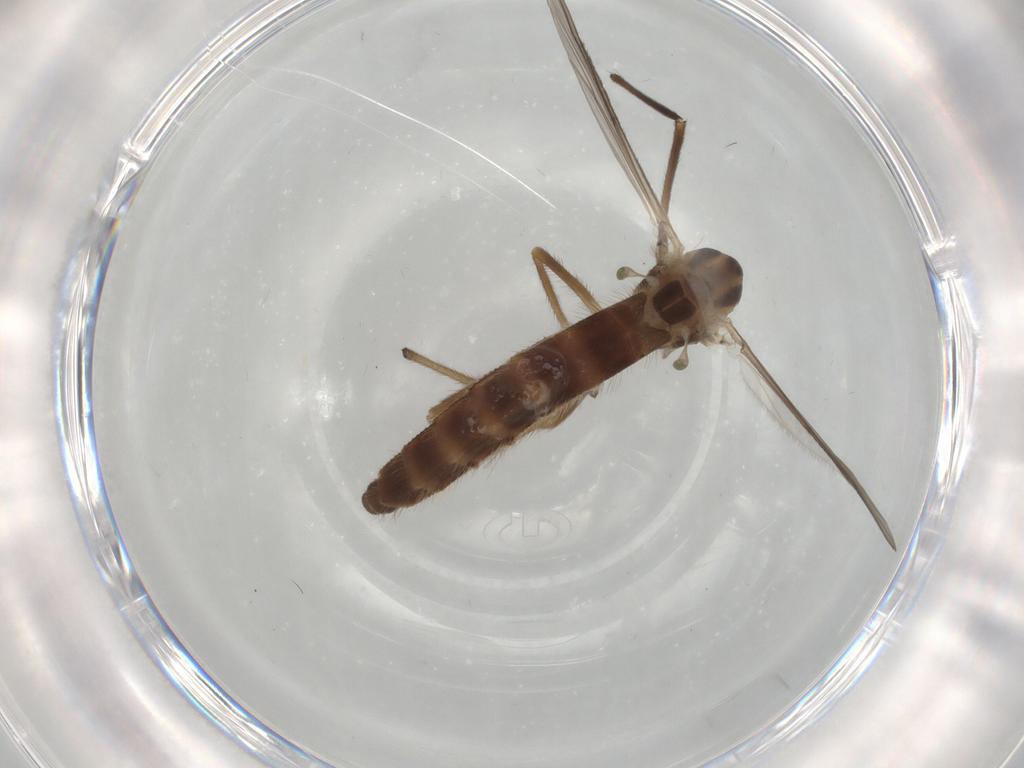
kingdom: Animalia
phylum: Arthropoda
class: Insecta
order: Diptera
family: Chironomidae
